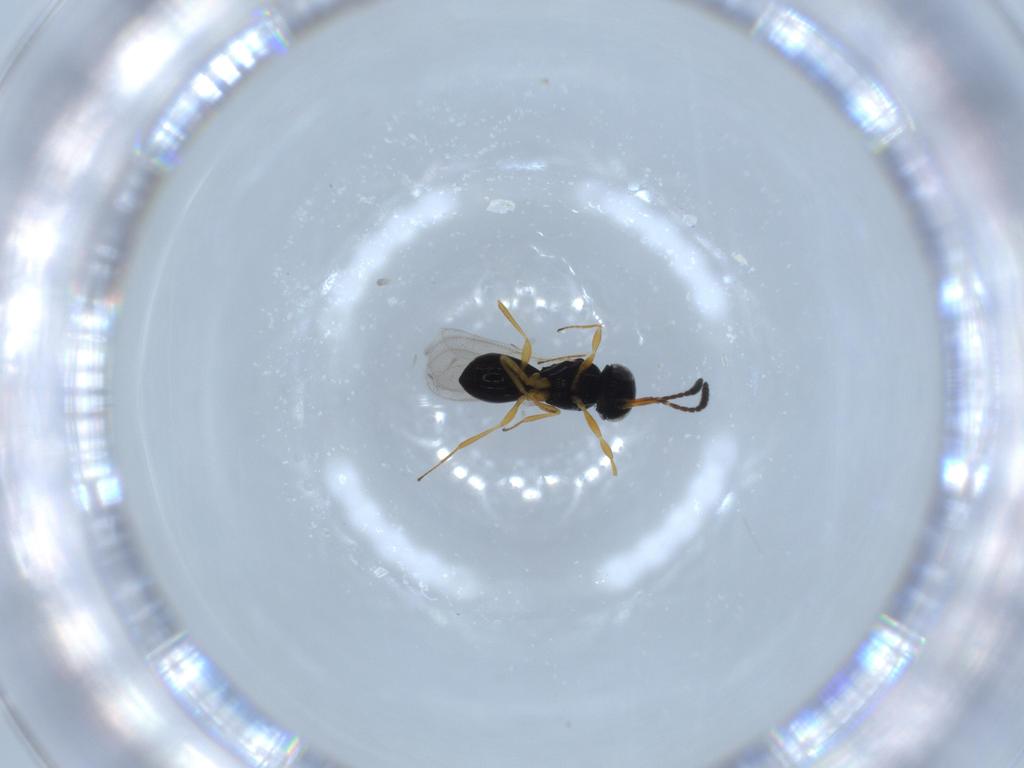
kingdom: Animalia
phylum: Arthropoda
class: Insecta
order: Hymenoptera
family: Scelionidae
